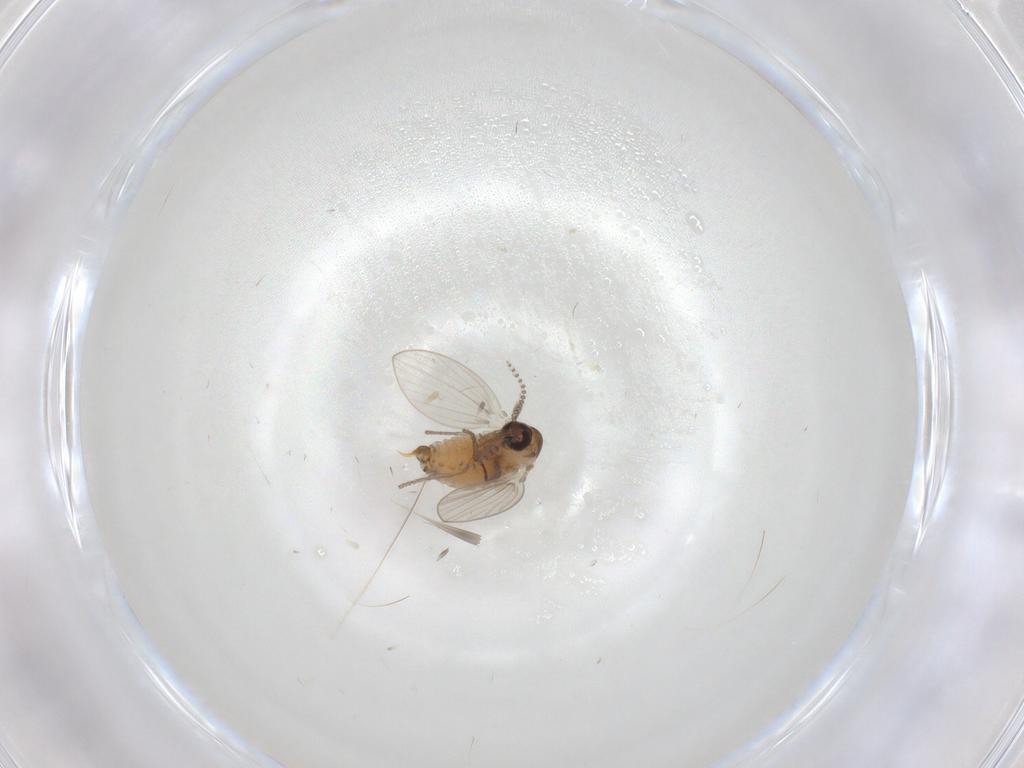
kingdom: Animalia
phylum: Arthropoda
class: Insecta
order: Diptera
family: Psychodidae
